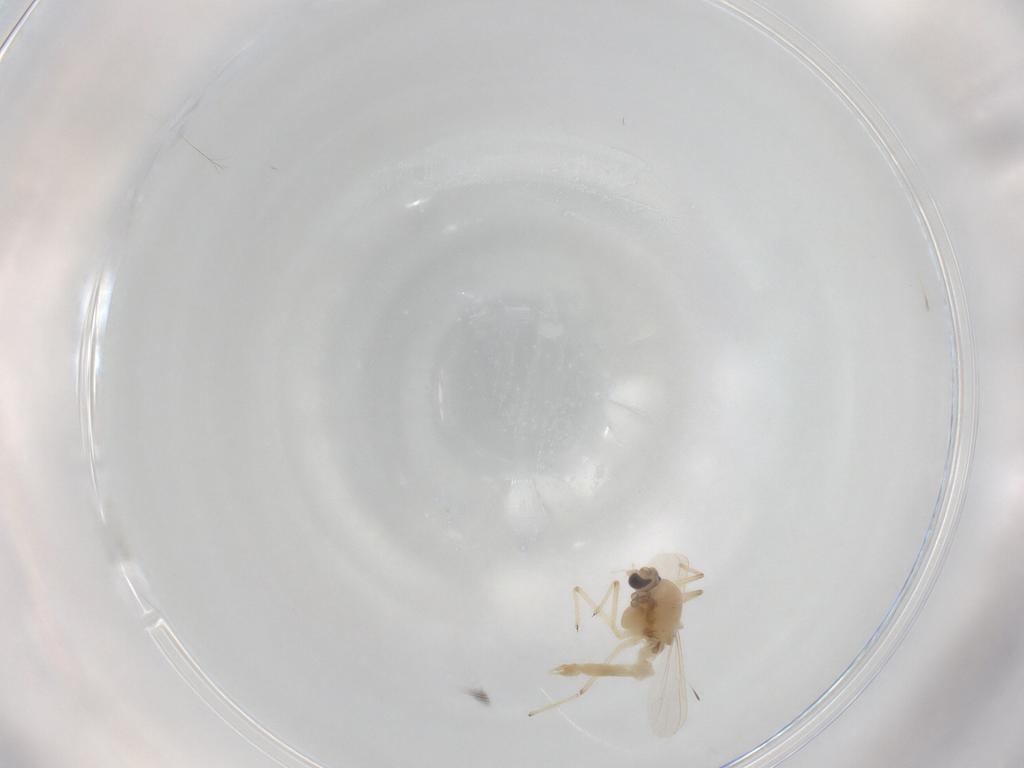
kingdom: Animalia
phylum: Arthropoda
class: Insecta
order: Diptera
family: Chironomidae
